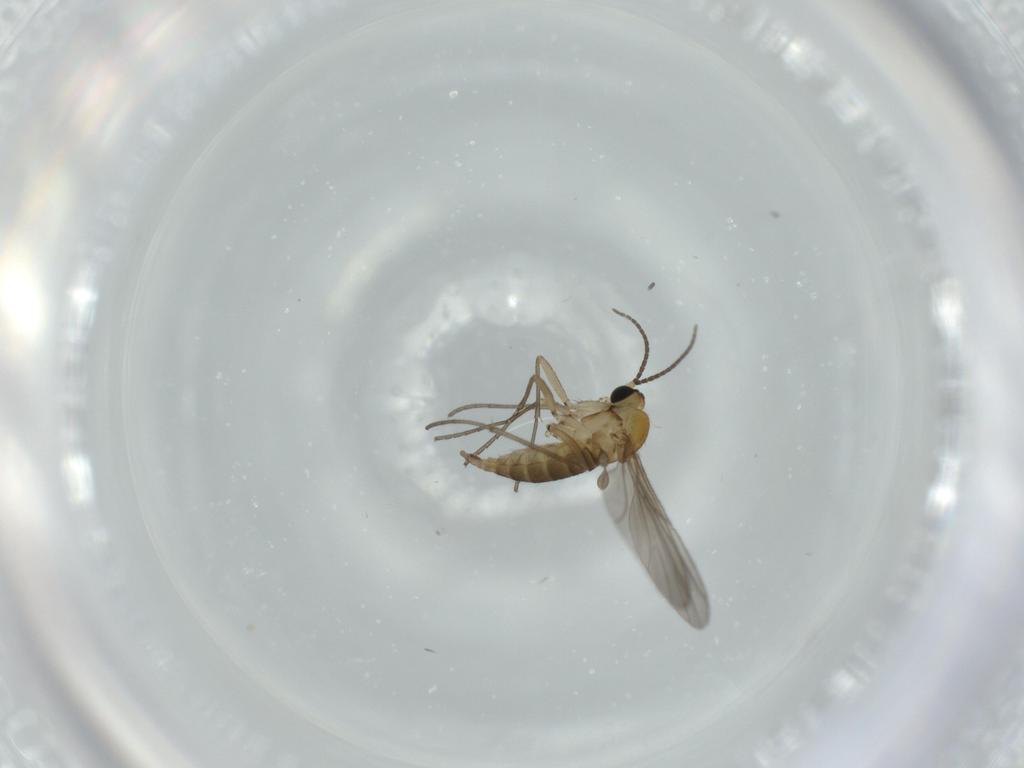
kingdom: Animalia
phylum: Arthropoda
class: Insecta
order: Diptera
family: Sciaridae
